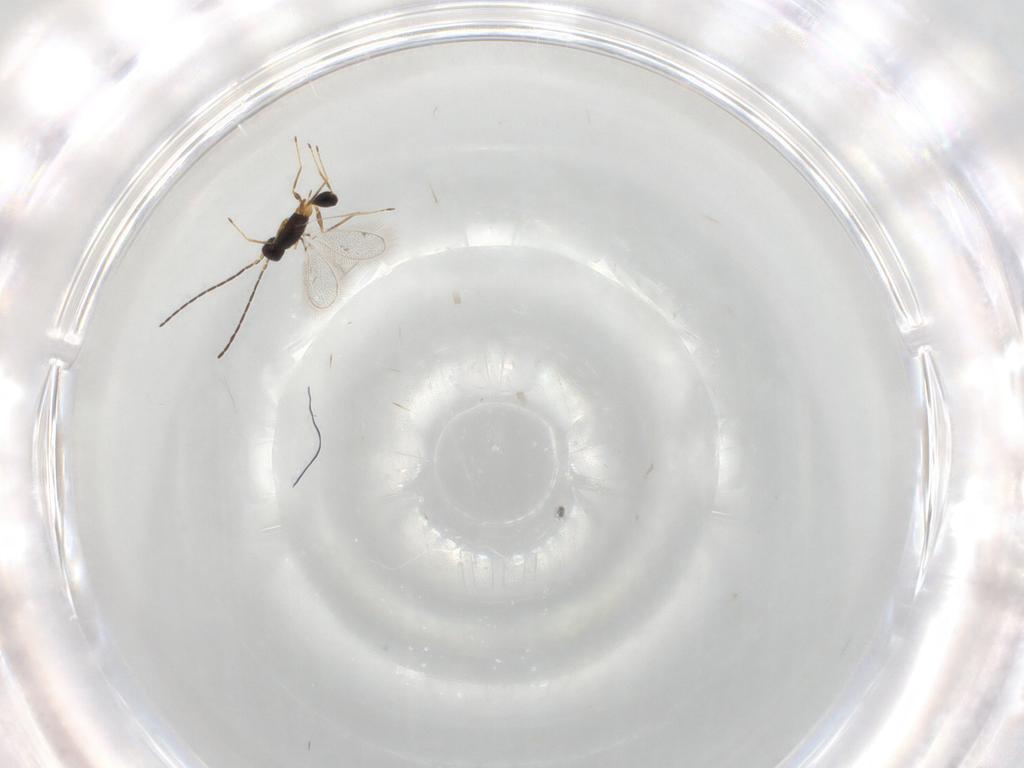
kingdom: Animalia
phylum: Arthropoda
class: Insecta
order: Hymenoptera
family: Mymaridae
